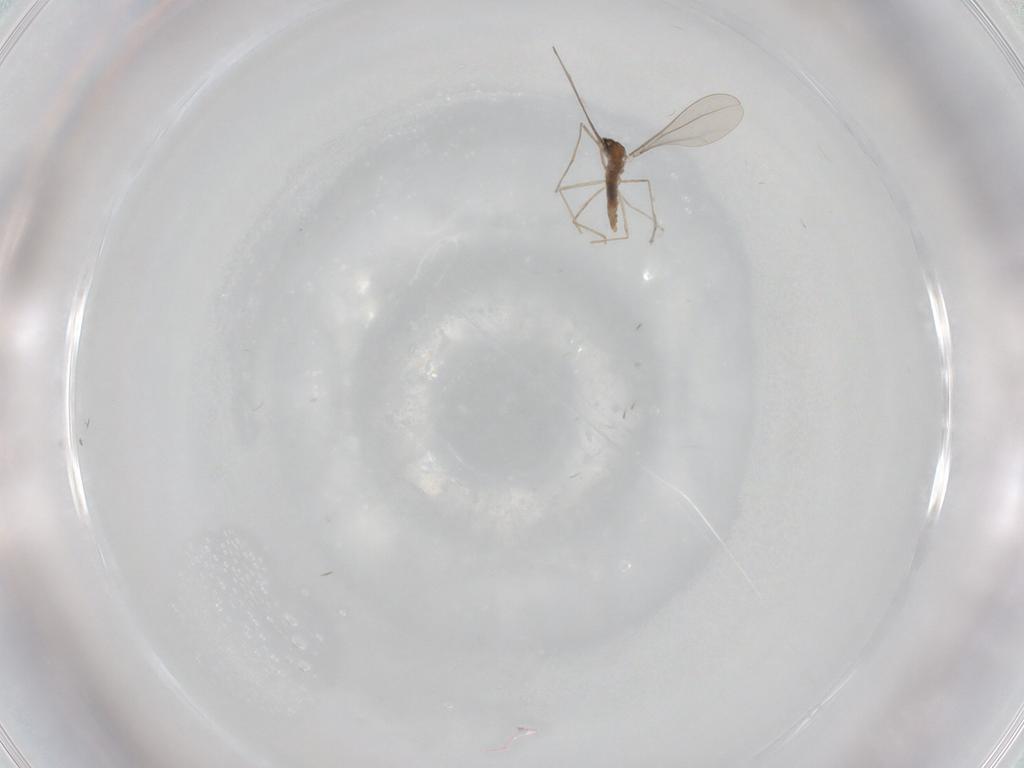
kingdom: Animalia
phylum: Arthropoda
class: Insecta
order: Diptera
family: Cecidomyiidae
